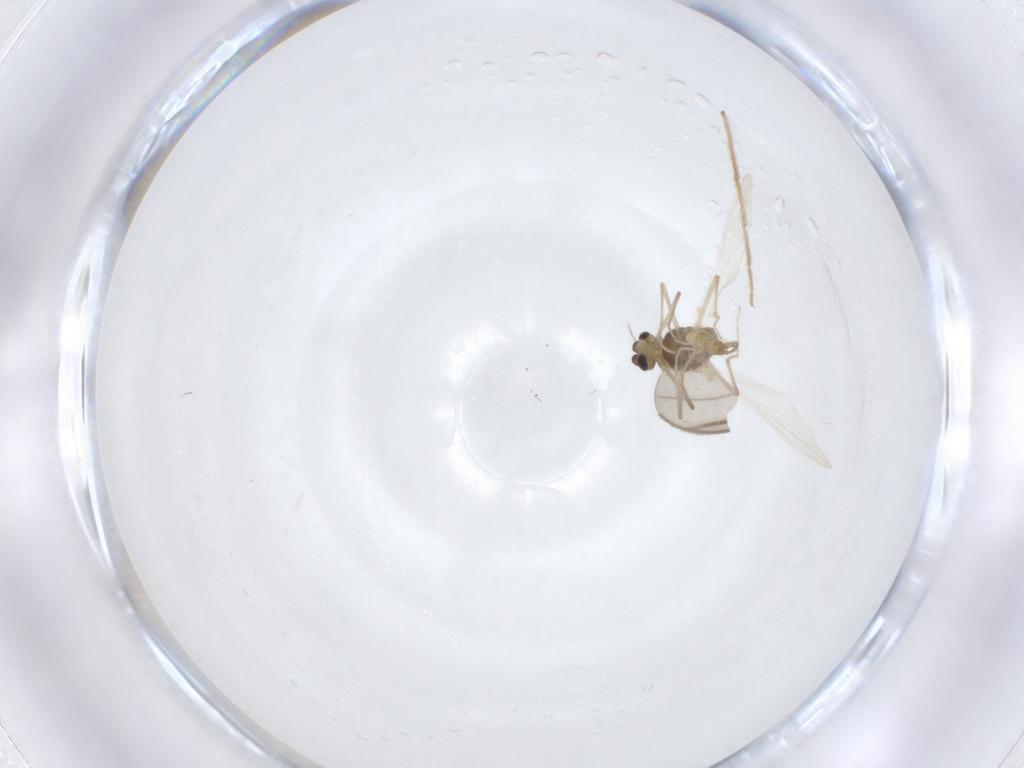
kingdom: Animalia
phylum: Arthropoda
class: Insecta
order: Diptera
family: Chironomidae
